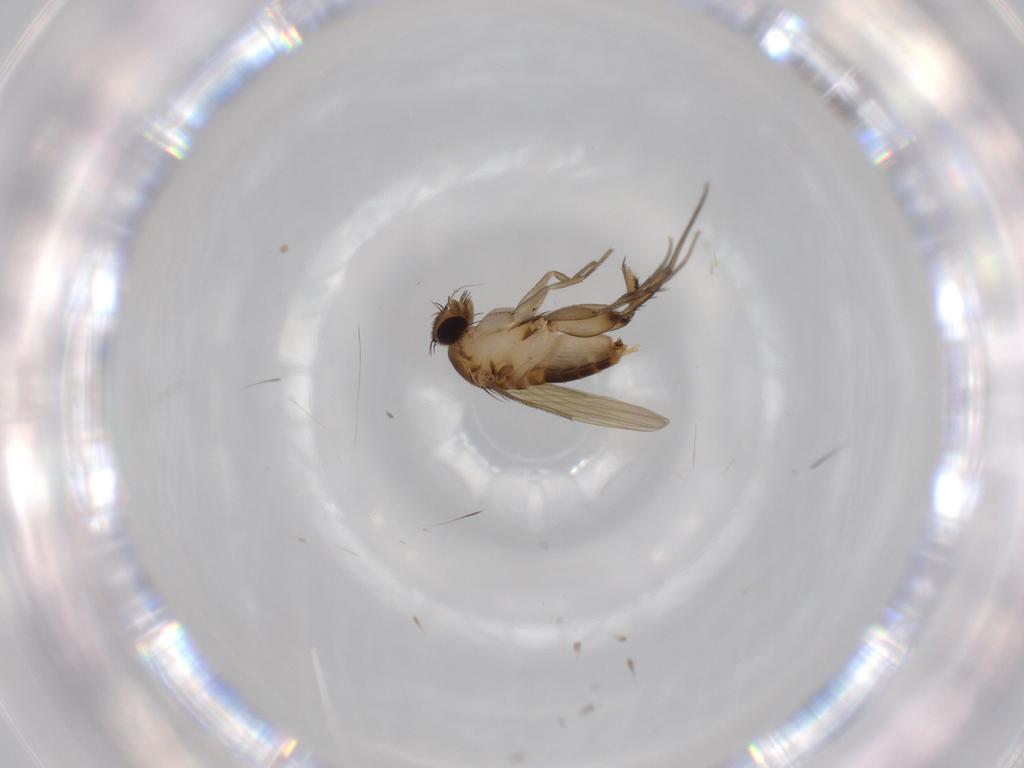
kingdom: Animalia
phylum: Arthropoda
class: Insecta
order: Diptera
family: Phoridae
